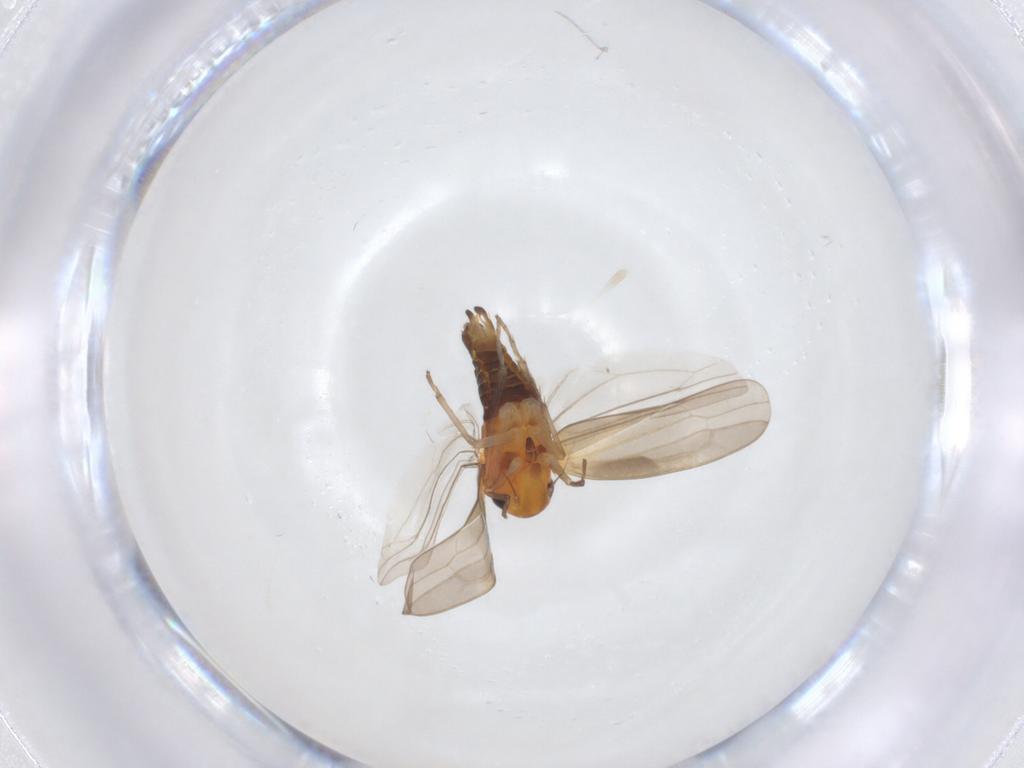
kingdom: Animalia
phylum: Arthropoda
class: Insecta
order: Hemiptera
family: Cicadellidae
